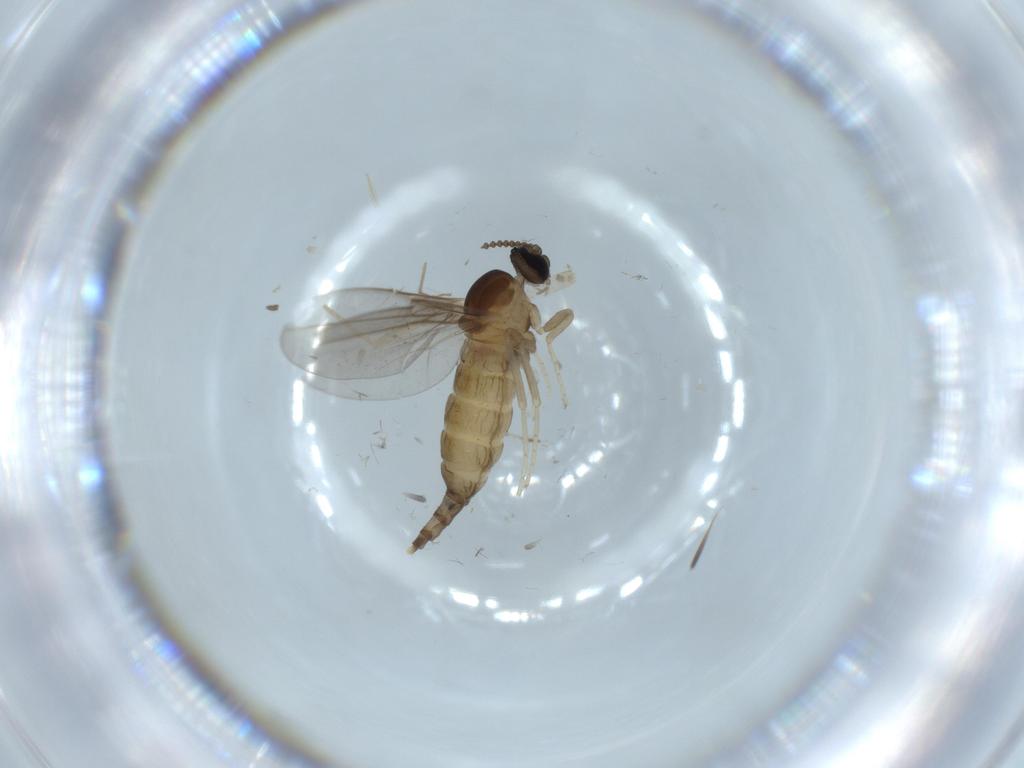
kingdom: Animalia
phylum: Arthropoda
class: Insecta
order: Diptera
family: Cecidomyiidae
